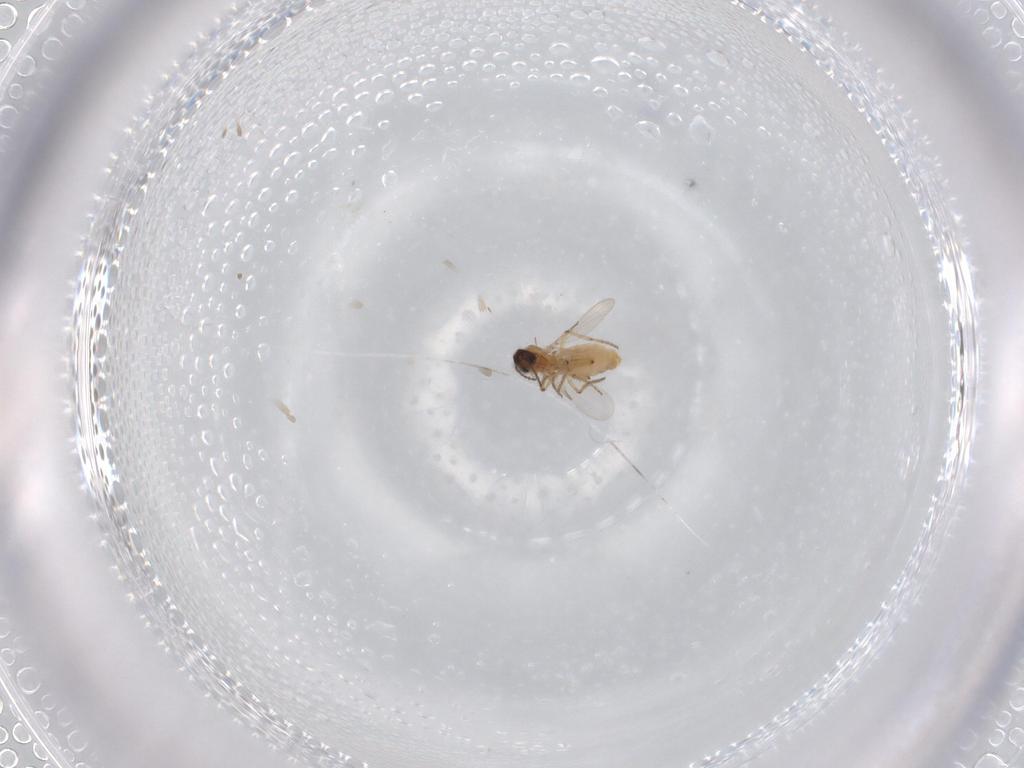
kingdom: Animalia
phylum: Arthropoda
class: Insecta
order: Diptera
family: Ceratopogonidae
